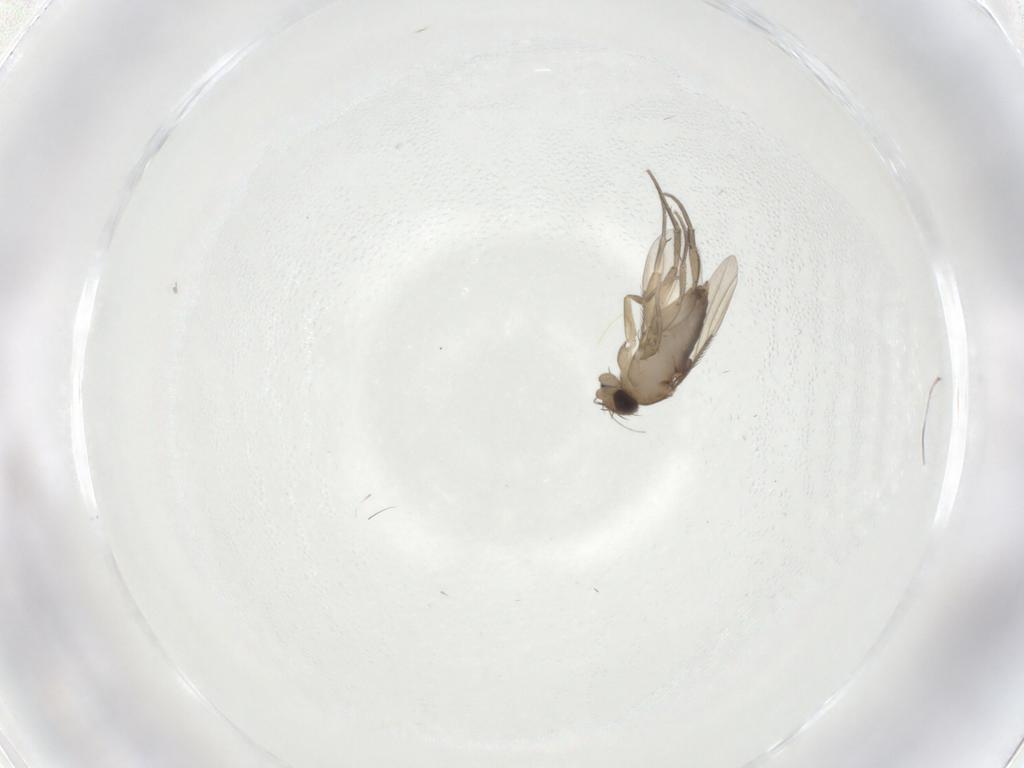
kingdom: Animalia
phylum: Arthropoda
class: Insecta
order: Diptera
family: Phoridae
